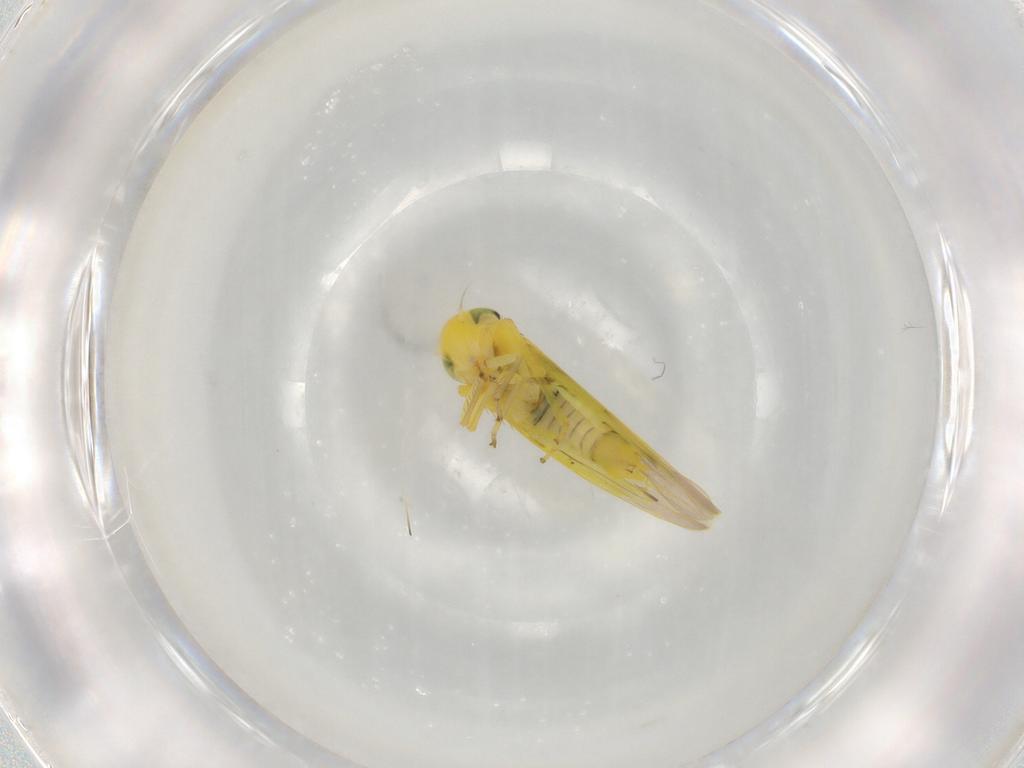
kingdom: Animalia
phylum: Arthropoda
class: Insecta
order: Hemiptera
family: Cicadellidae
